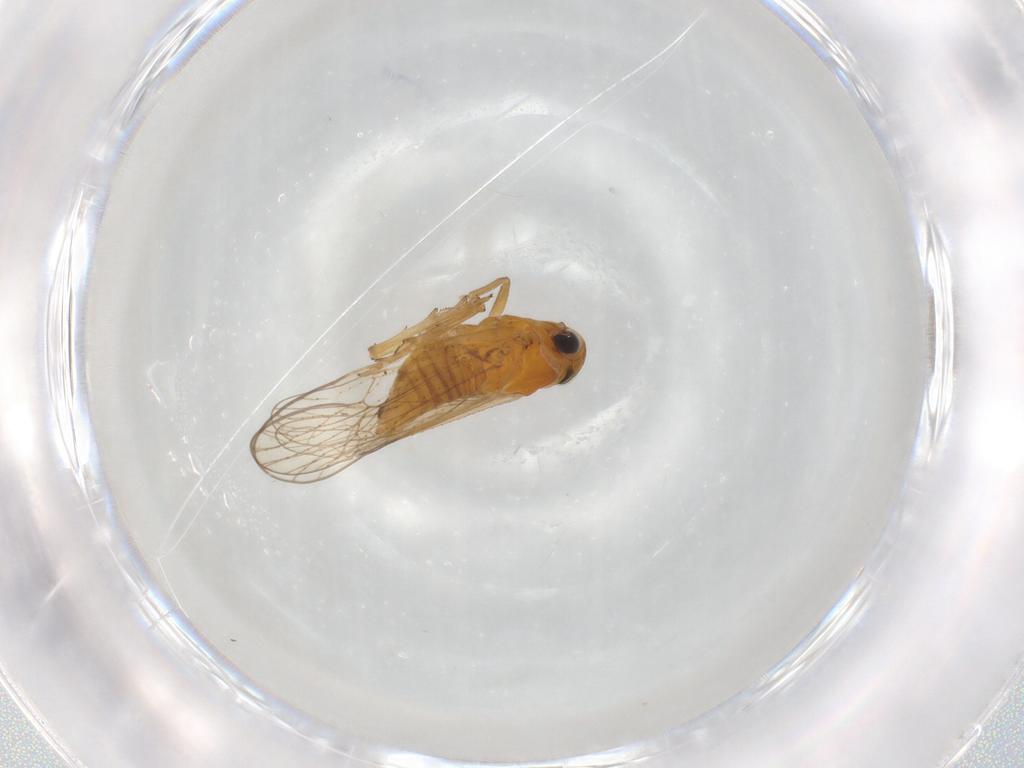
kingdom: Animalia
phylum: Arthropoda
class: Insecta
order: Hemiptera
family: Cicadellidae
